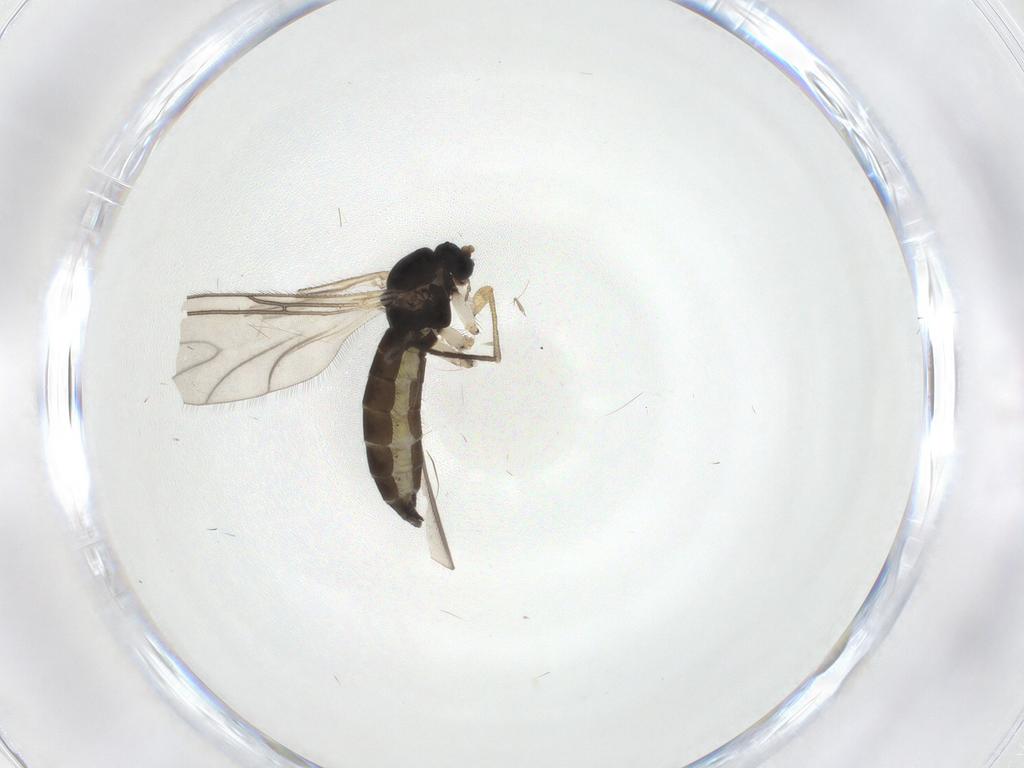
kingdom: Animalia
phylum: Arthropoda
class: Insecta
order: Diptera
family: Sciaridae
